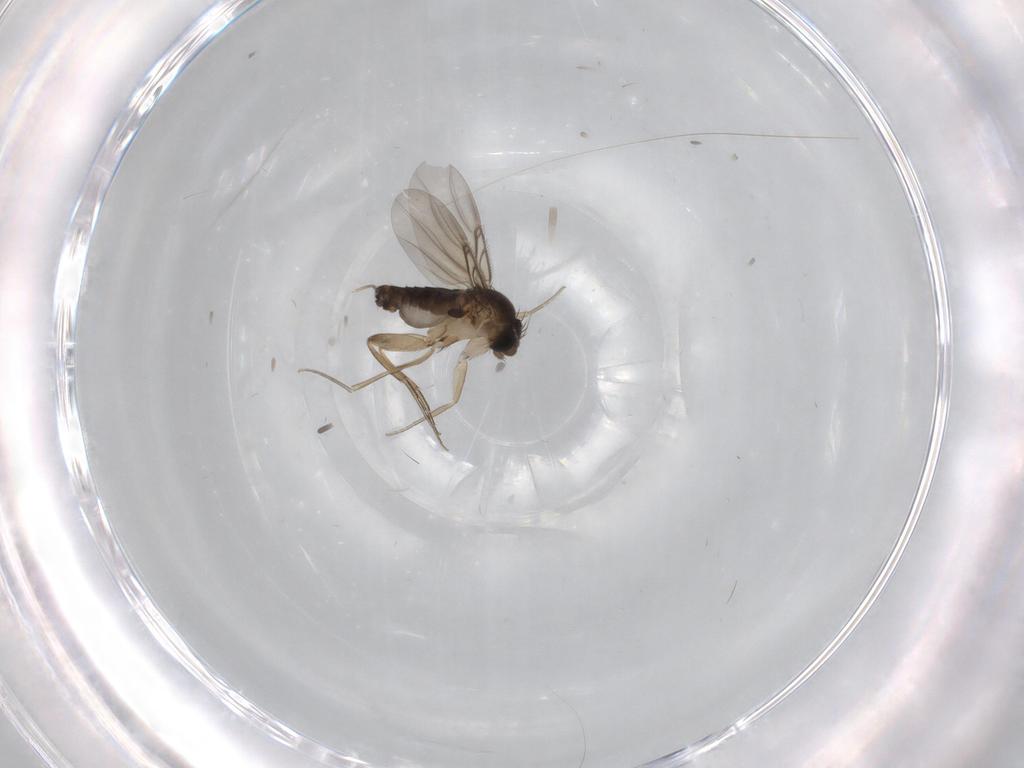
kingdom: Animalia
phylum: Arthropoda
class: Insecta
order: Diptera
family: Phoridae
